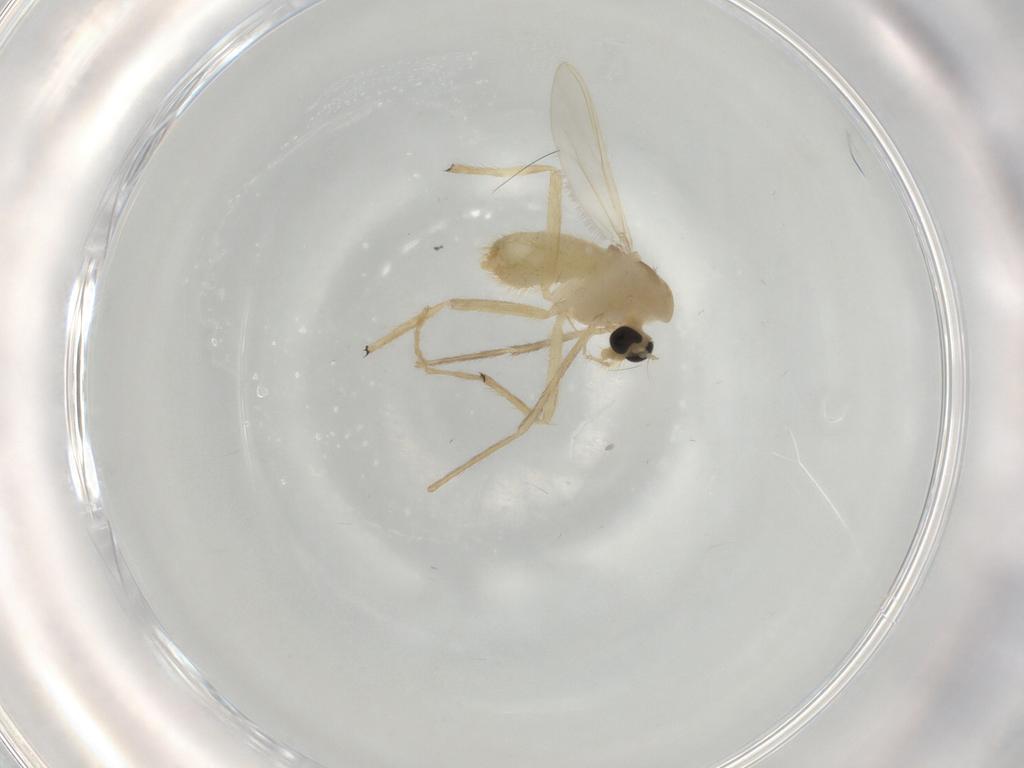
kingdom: Animalia
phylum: Arthropoda
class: Insecta
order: Diptera
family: Chironomidae
